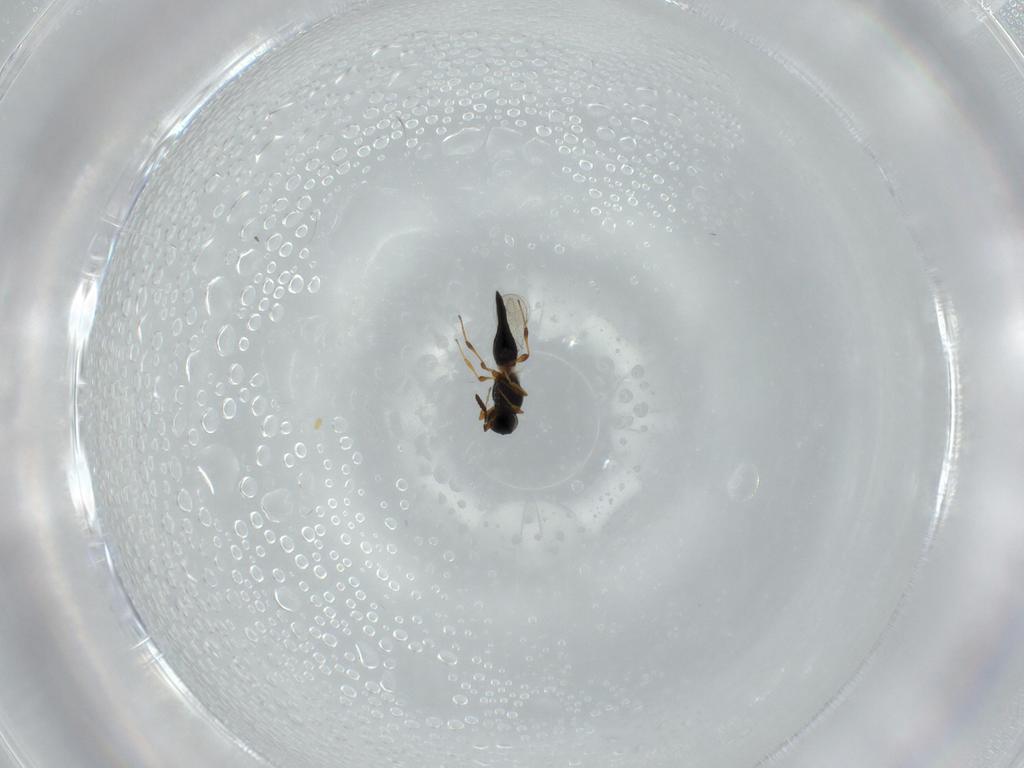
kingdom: Animalia
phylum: Arthropoda
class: Insecta
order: Hymenoptera
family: Platygastridae
